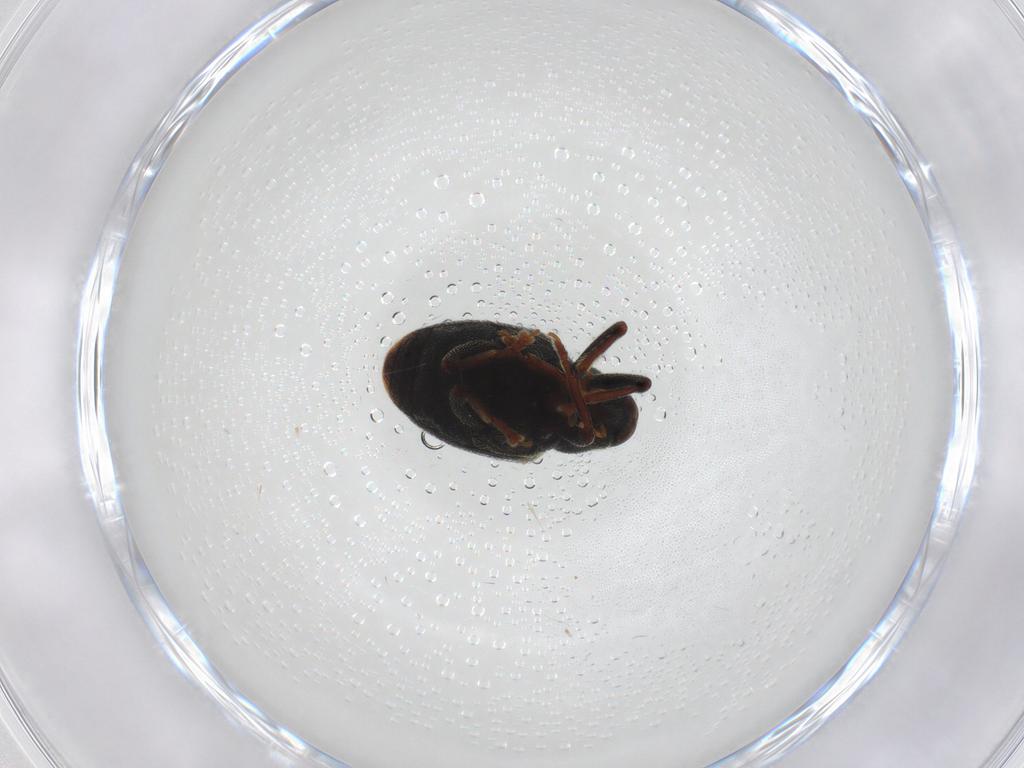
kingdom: Animalia
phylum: Arthropoda
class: Insecta
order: Coleoptera
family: Curculionidae
